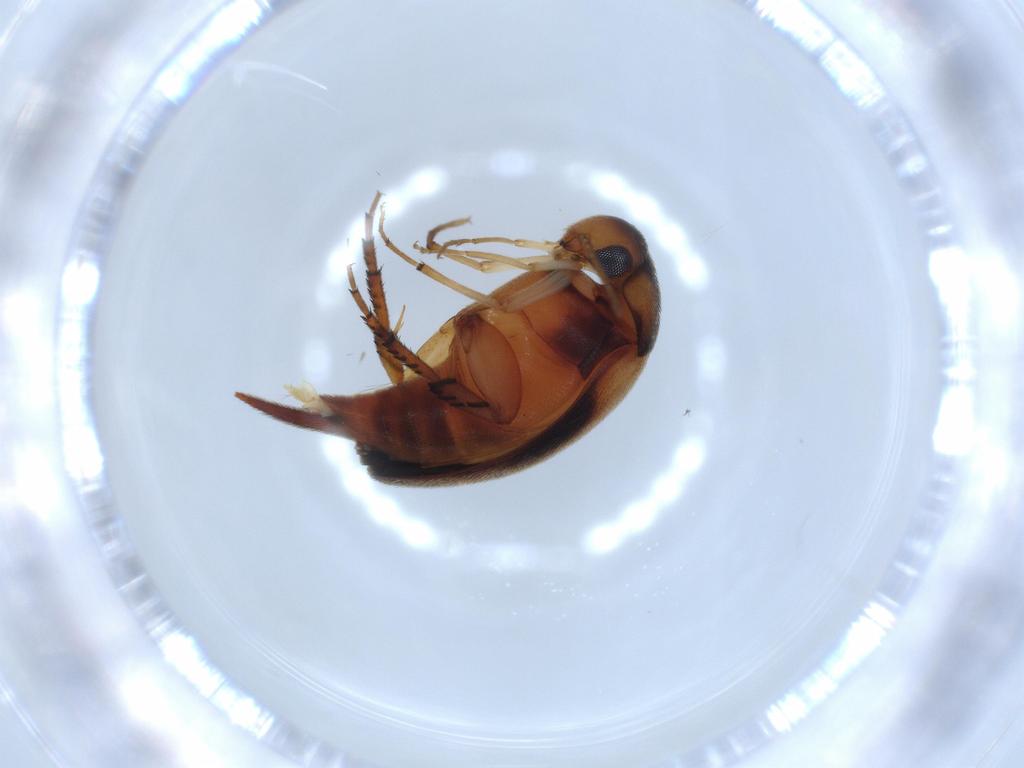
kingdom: Animalia
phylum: Arthropoda
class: Insecta
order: Coleoptera
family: Mordellidae
